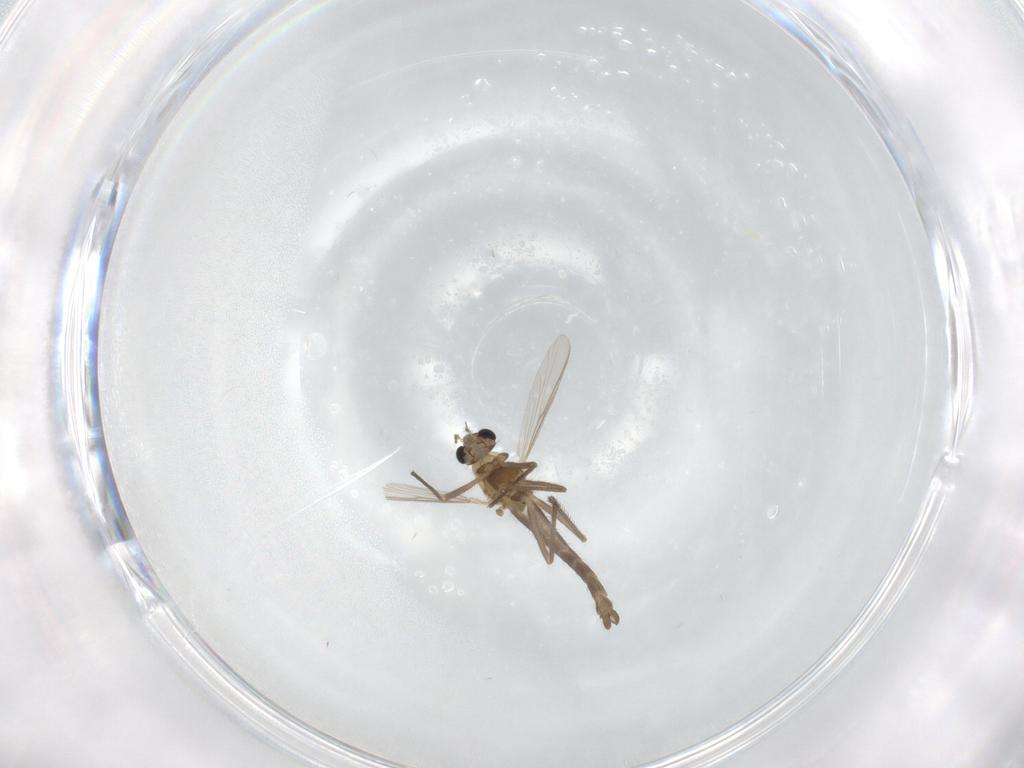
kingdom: Animalia
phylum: Arthropoda
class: Insecta
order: Diptera
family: Chironomidae
